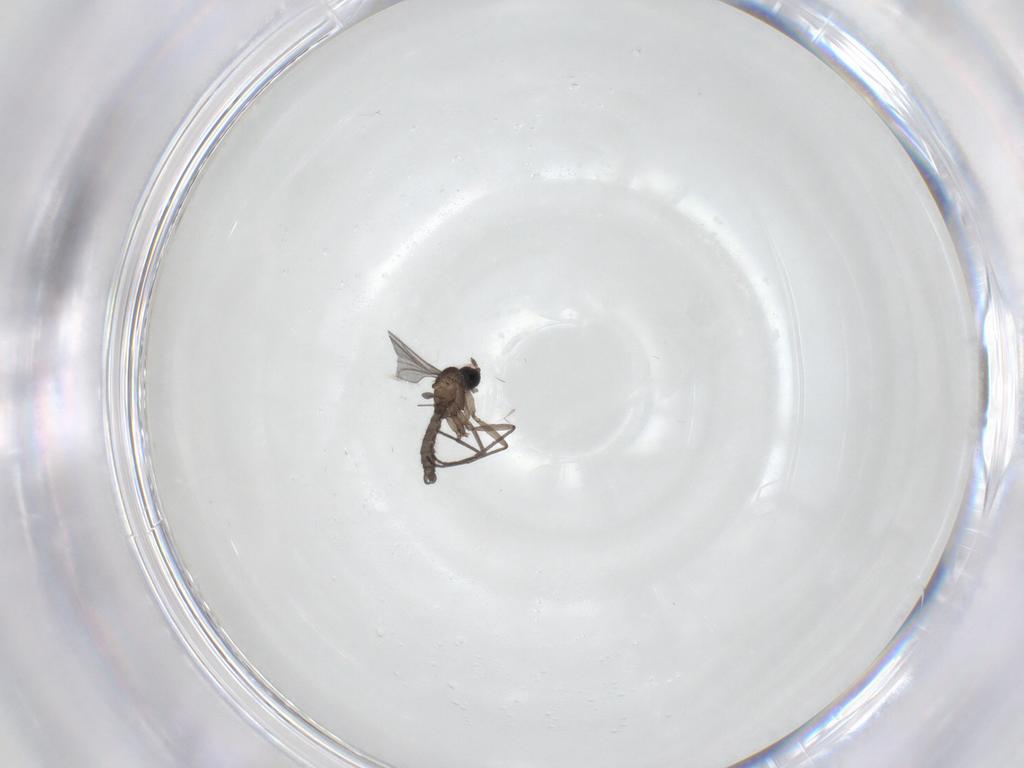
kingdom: Animalia
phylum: Arthropoda
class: Insecta
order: Diptera
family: Sciaridae
